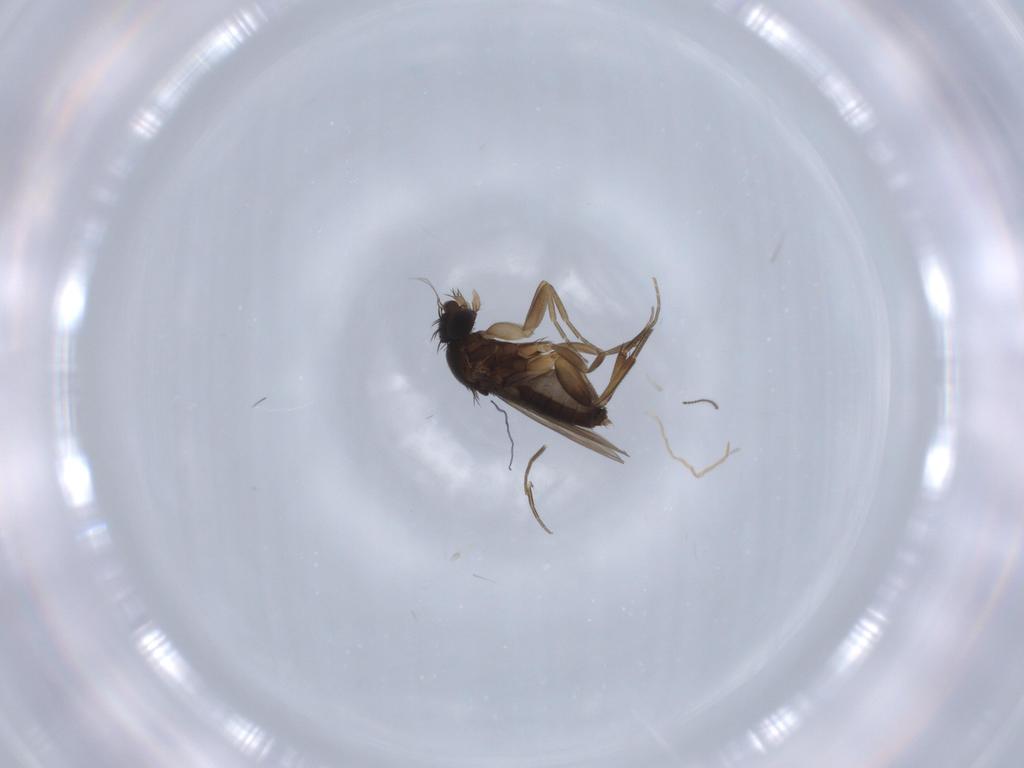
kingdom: Animalia
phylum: Arthropoda
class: Insecta
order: Diptera
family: Phoridae
